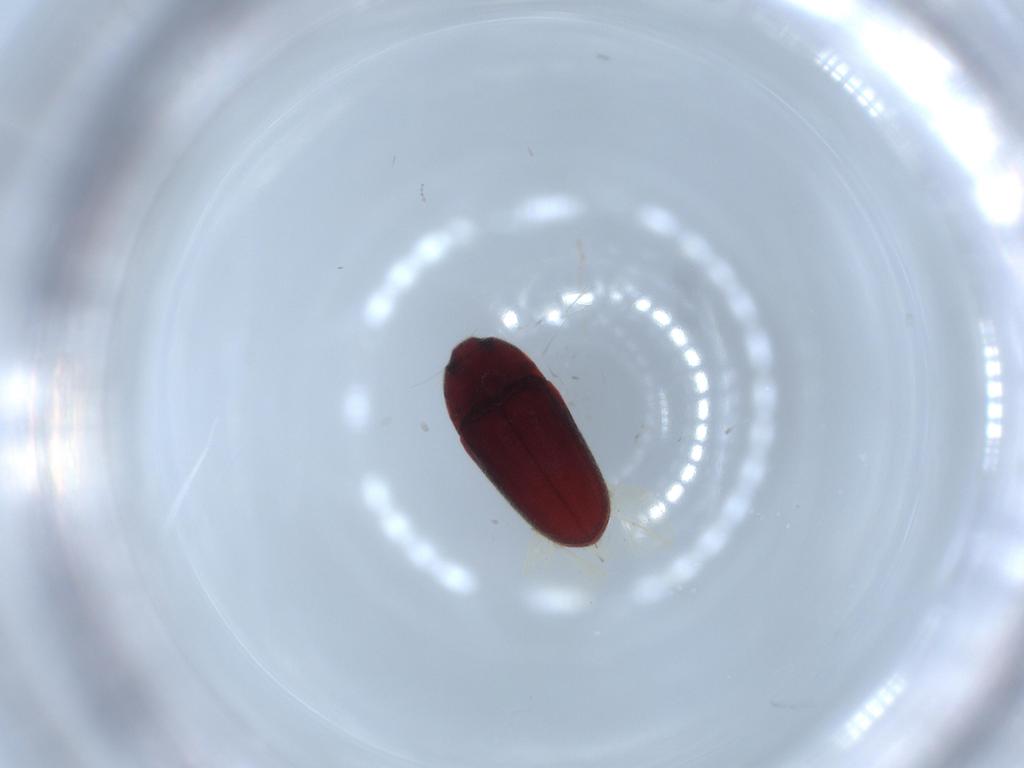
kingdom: Animalia
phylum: Arthropoda
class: Insecta
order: Coleoptera
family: Throscidae
